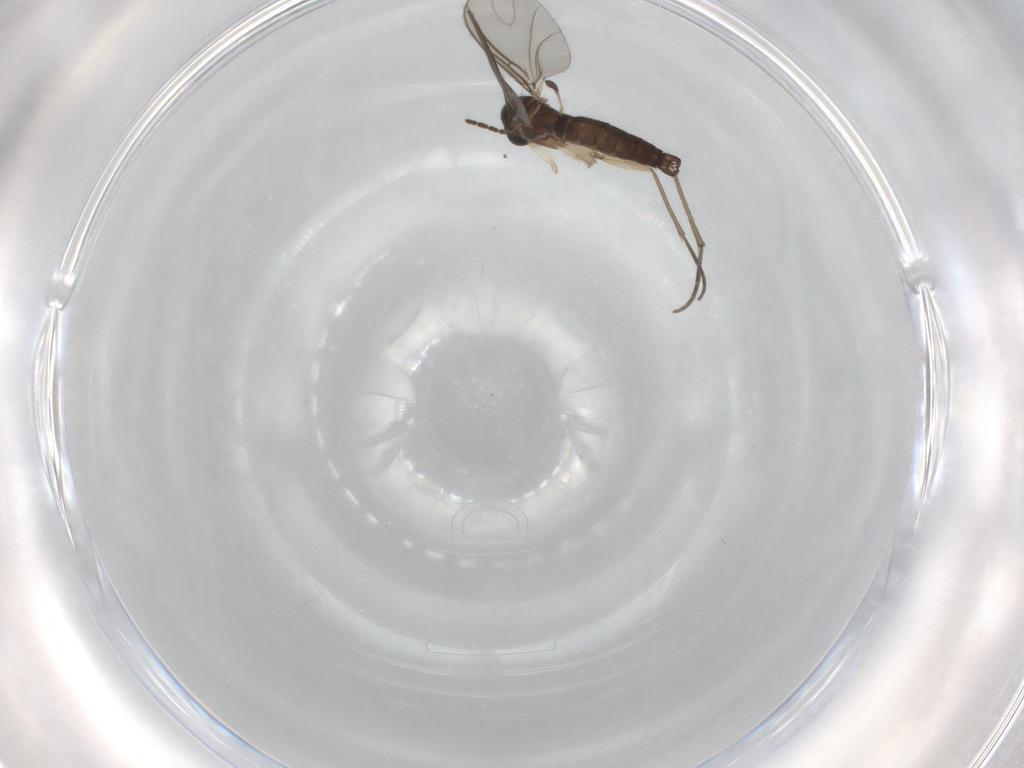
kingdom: Animalia
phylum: Arthropoda
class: Insecta
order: Diptera
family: Sciaridae
